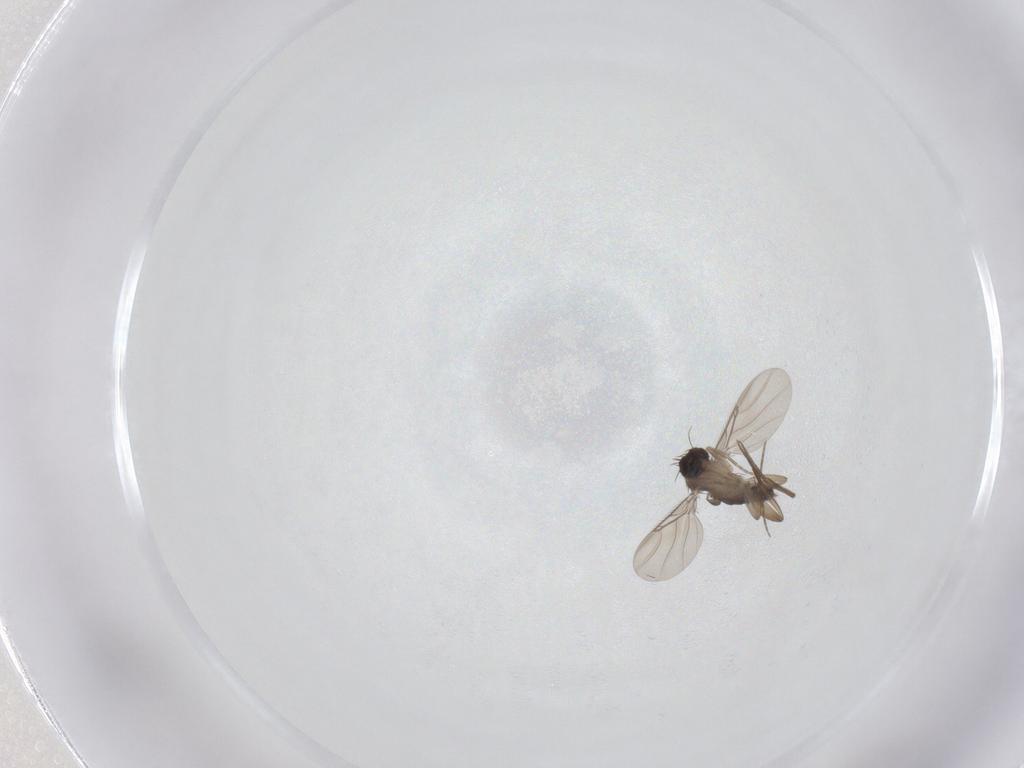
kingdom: Animalia
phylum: Arthropoda
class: Insecta
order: Diptera
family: Phoridae
